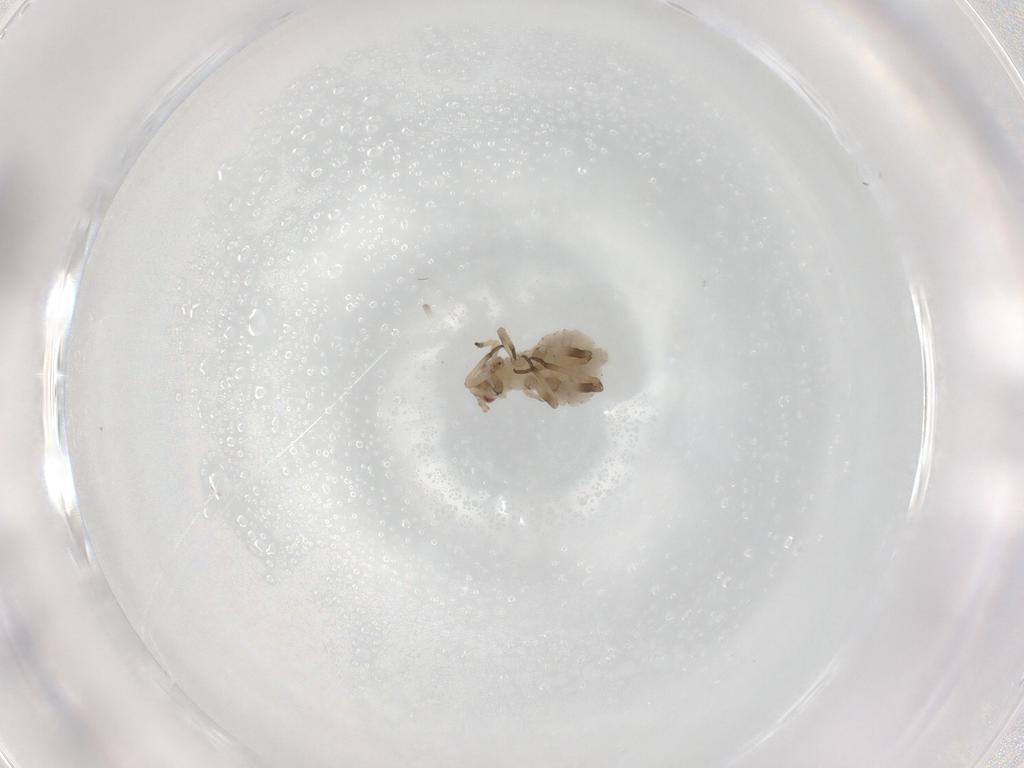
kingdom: Animalia
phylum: Arthropoda
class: Insecta
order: Hemiptera
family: Aphididae
